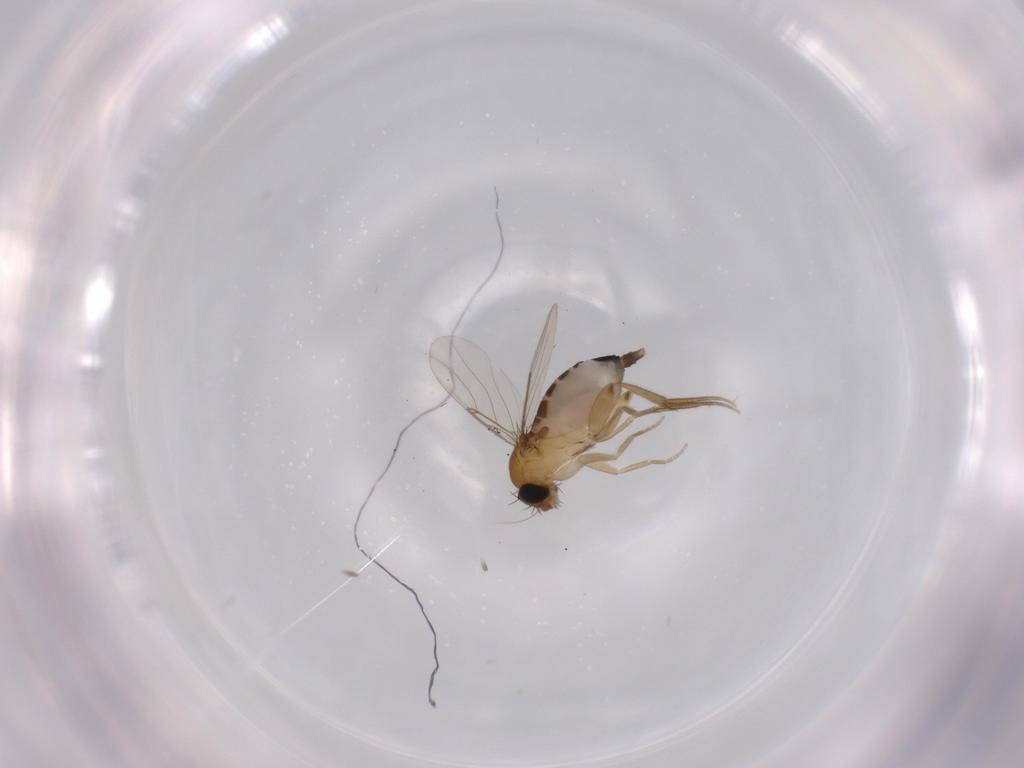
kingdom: Animalia
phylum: Arthropoda
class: Insecta
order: Diptera
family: Phoridae
